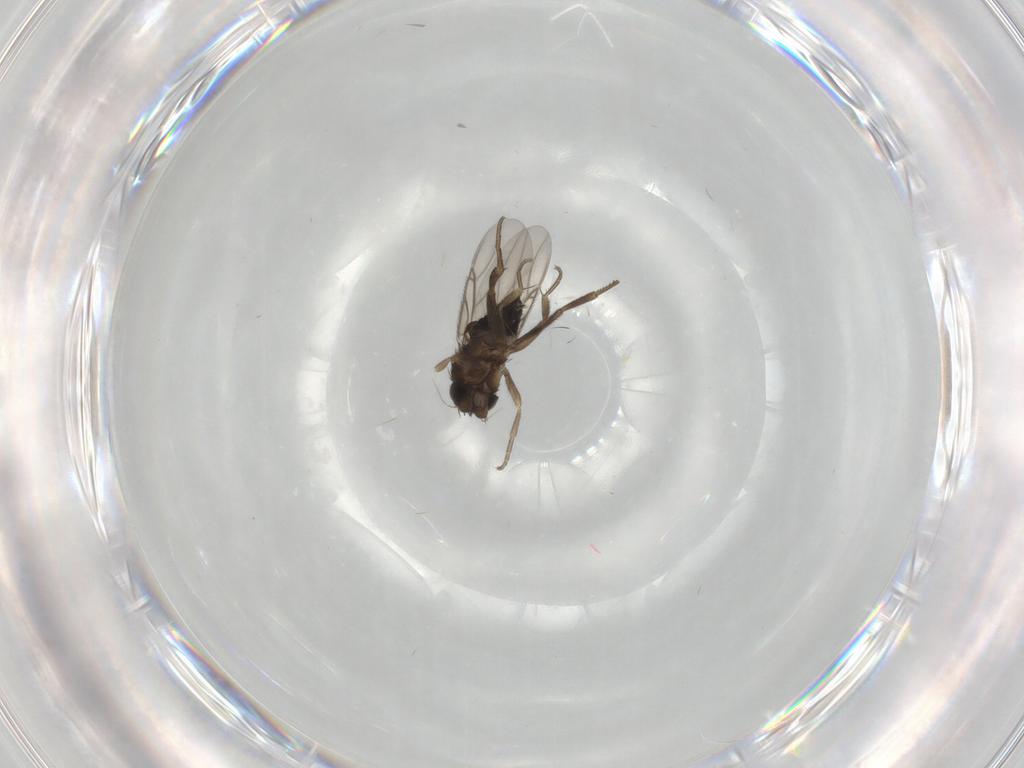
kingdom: Animalia
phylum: Arthropoda
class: Insecta
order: Diptera
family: Phoridae
